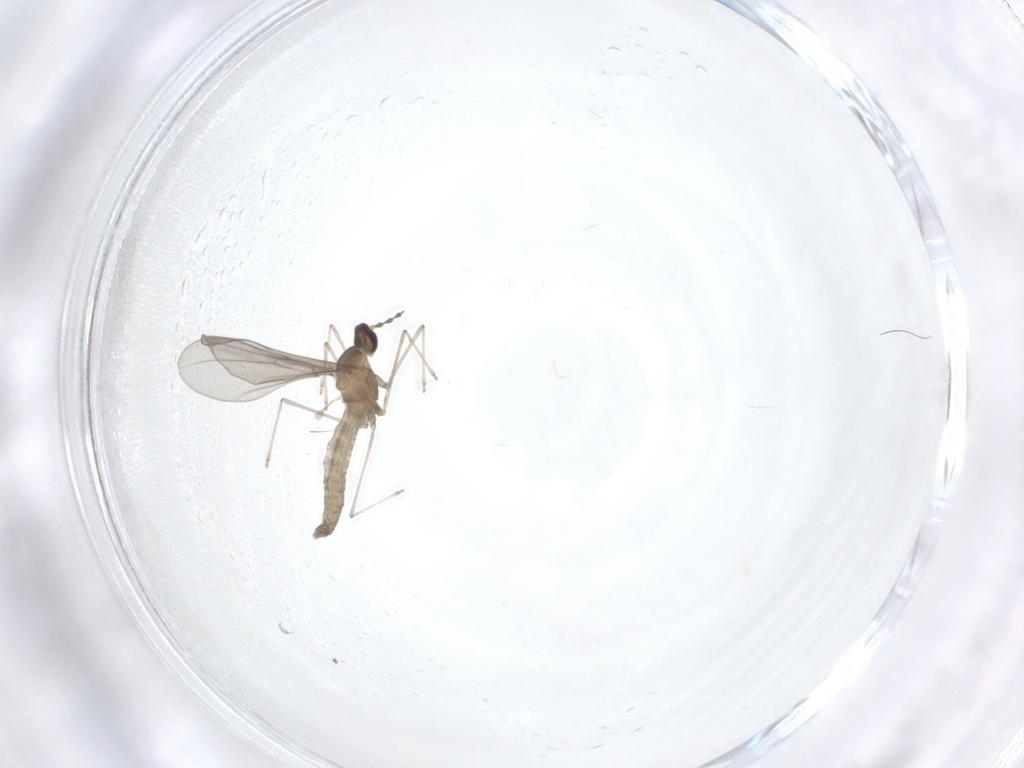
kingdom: Animalia
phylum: Arthropoda
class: Insecta
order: Diptera
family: Cecidomyiidae
